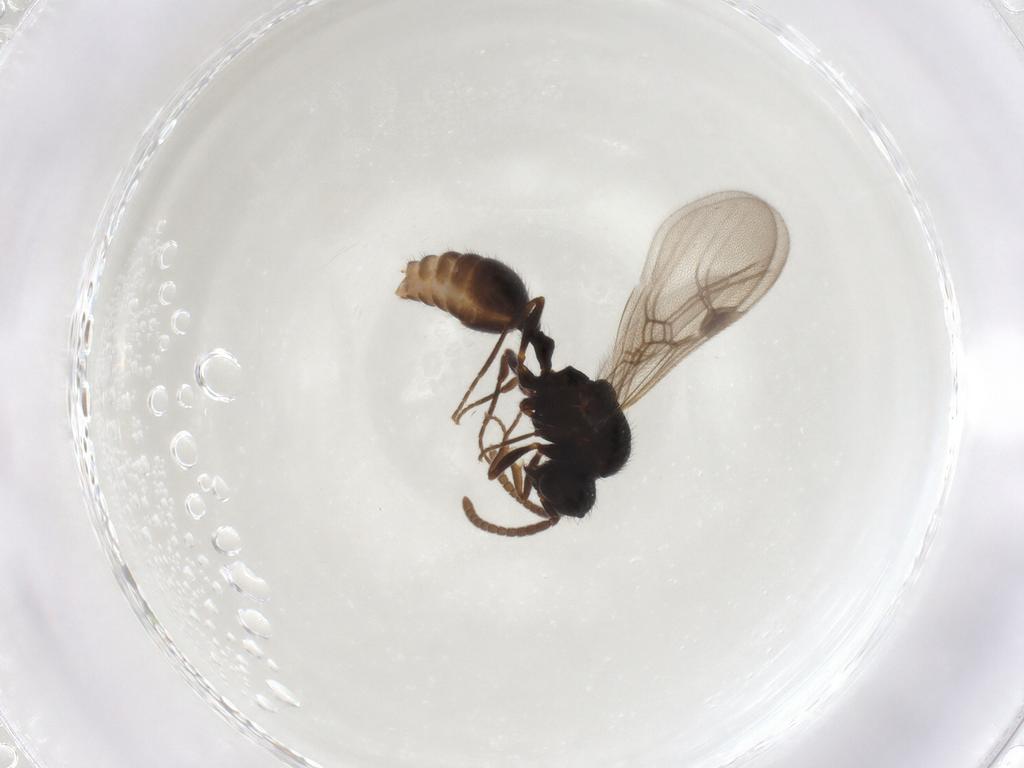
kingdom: Animalia
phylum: Arthropoda
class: Insecta
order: Hymenoptera
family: Formicidae
